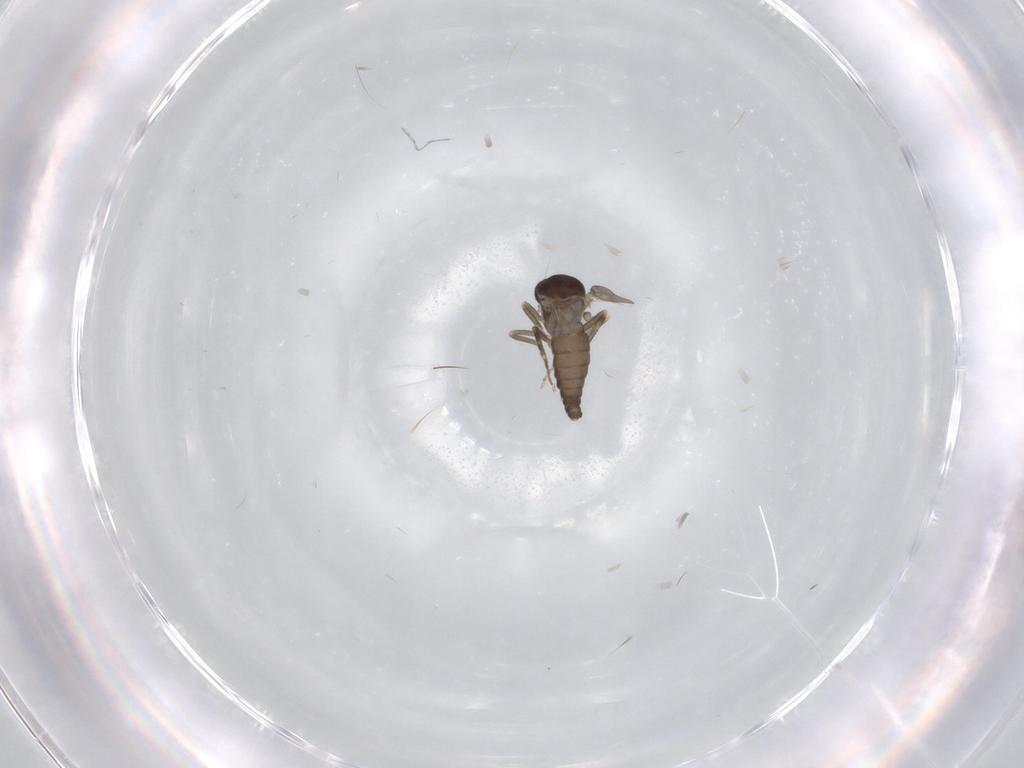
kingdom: Animalia
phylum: Arthropoda
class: Insecta
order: Diptera
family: Ceratopogonidae
